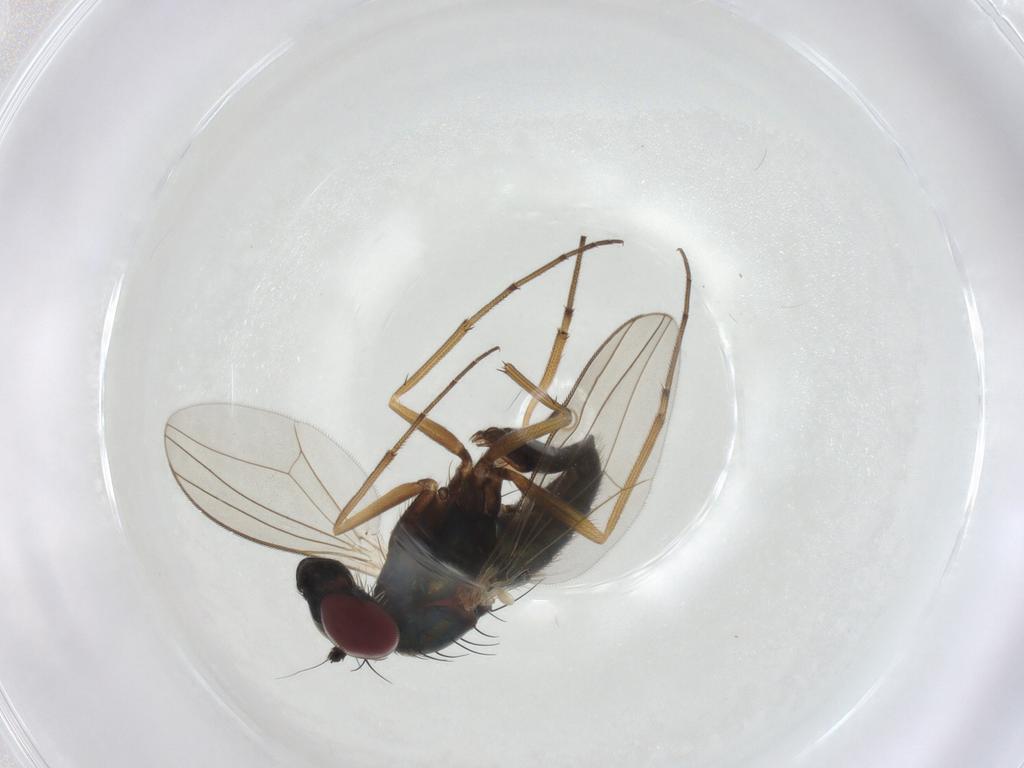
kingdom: Animalia
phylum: Arthropoda
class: Insecta
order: Diptera
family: Dolichopodidae
